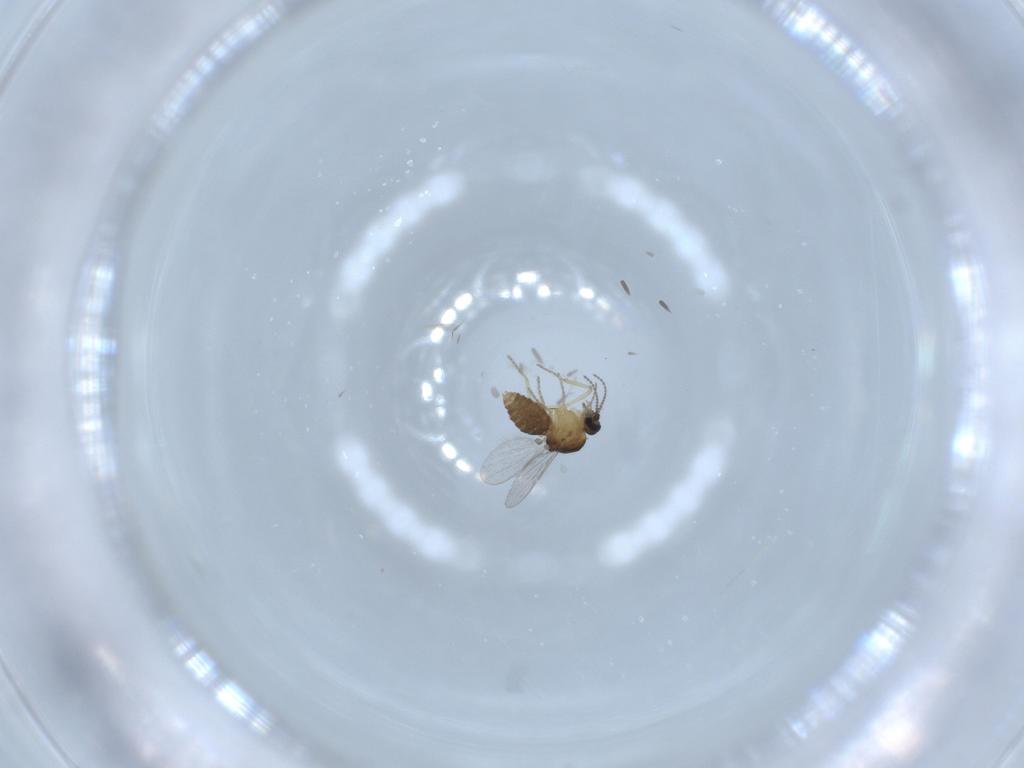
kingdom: Animalia
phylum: Arthropoda
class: Insecta
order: Diptera
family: Ceratopogonidae
